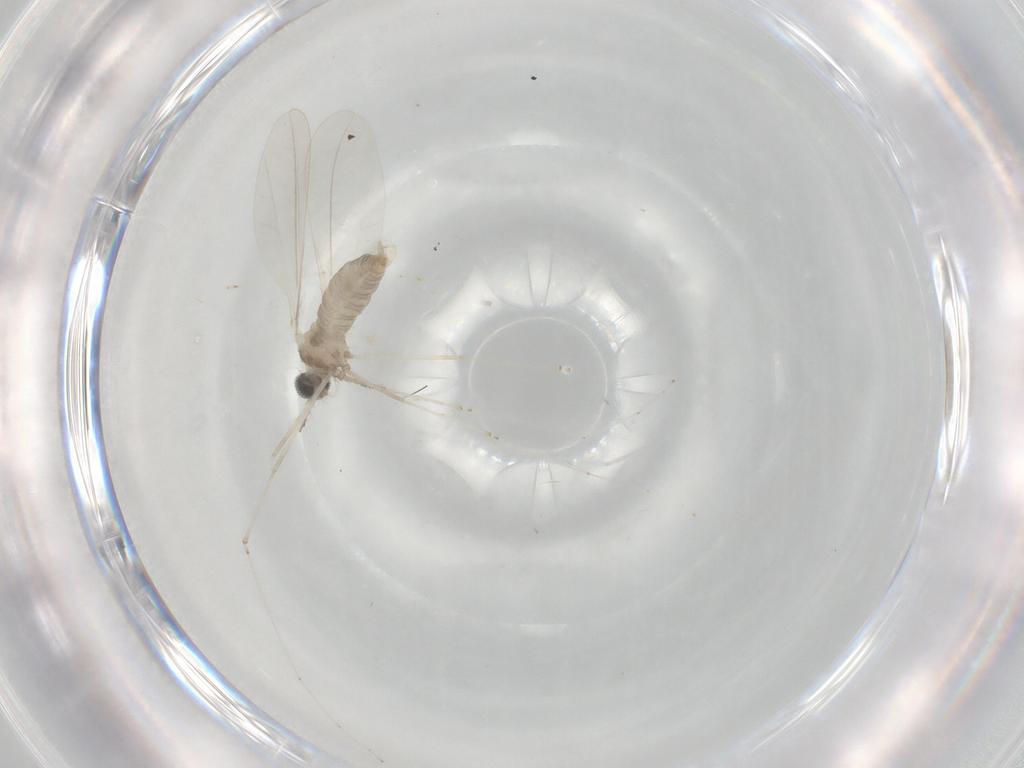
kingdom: Animalia
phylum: Arthropoda
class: Insecta
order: Diptera
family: Cecidomyiidae
